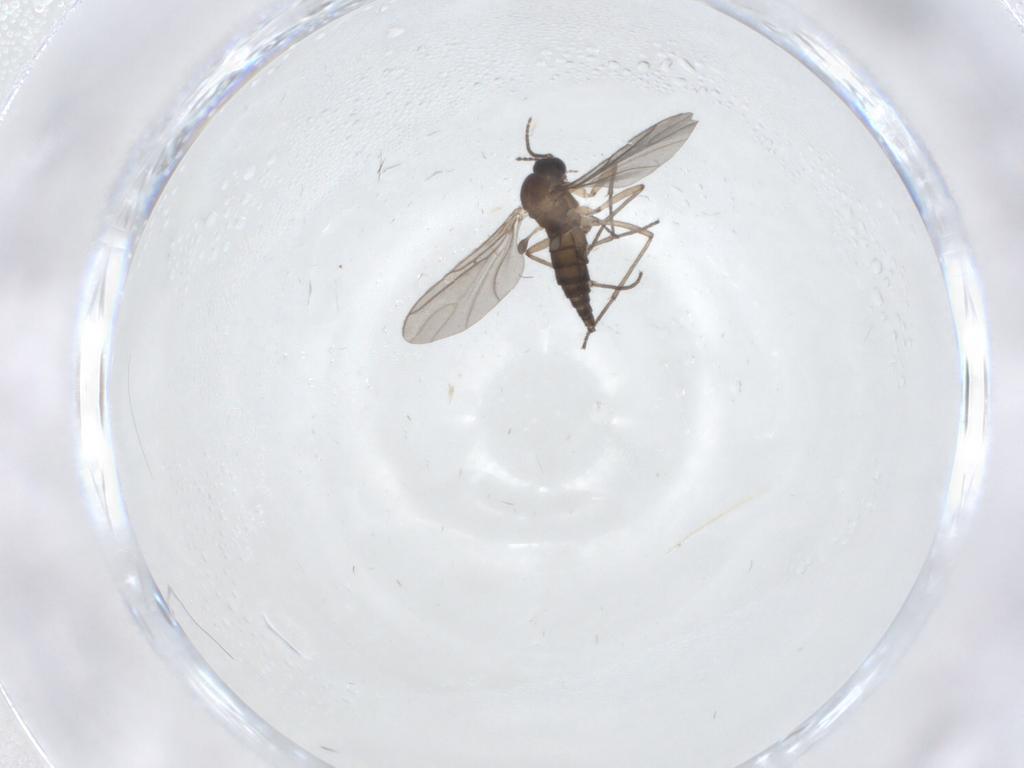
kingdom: Animalia
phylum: Arthropoda
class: Insecta
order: Diptera
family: Sciaridae
